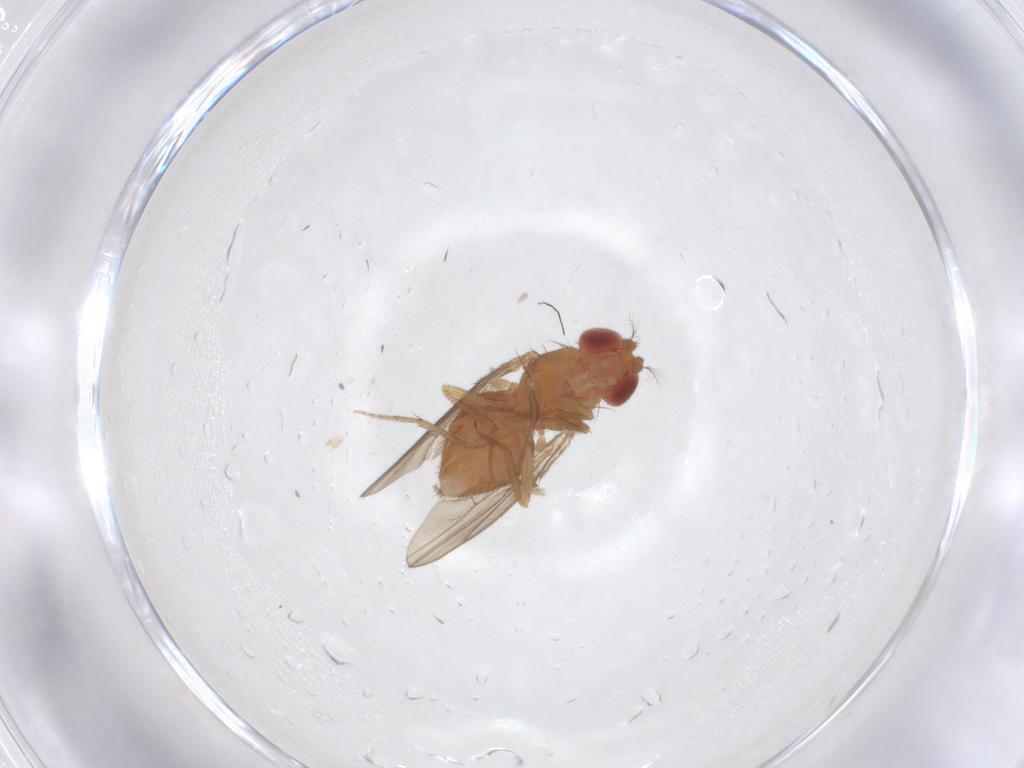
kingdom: Animalia
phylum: Arthropoda
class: Insecta
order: Diptera
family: Drosophilidae
